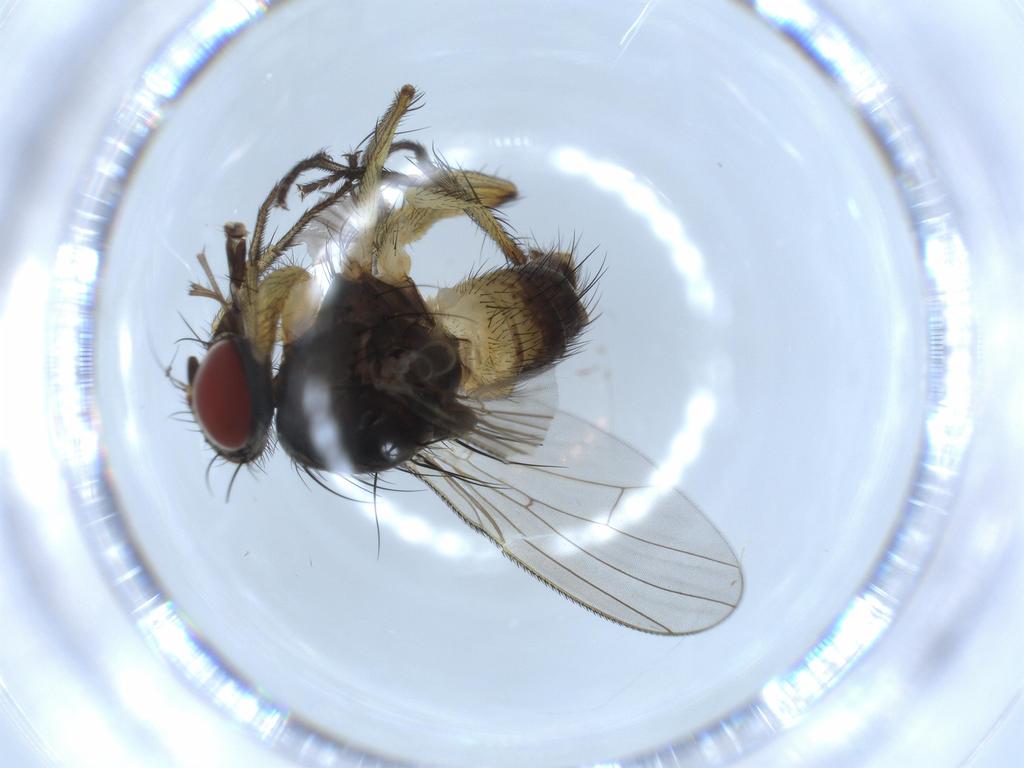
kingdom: Animalia
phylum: Arthropoda
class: Insecta
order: Diptera
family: Muscidae
